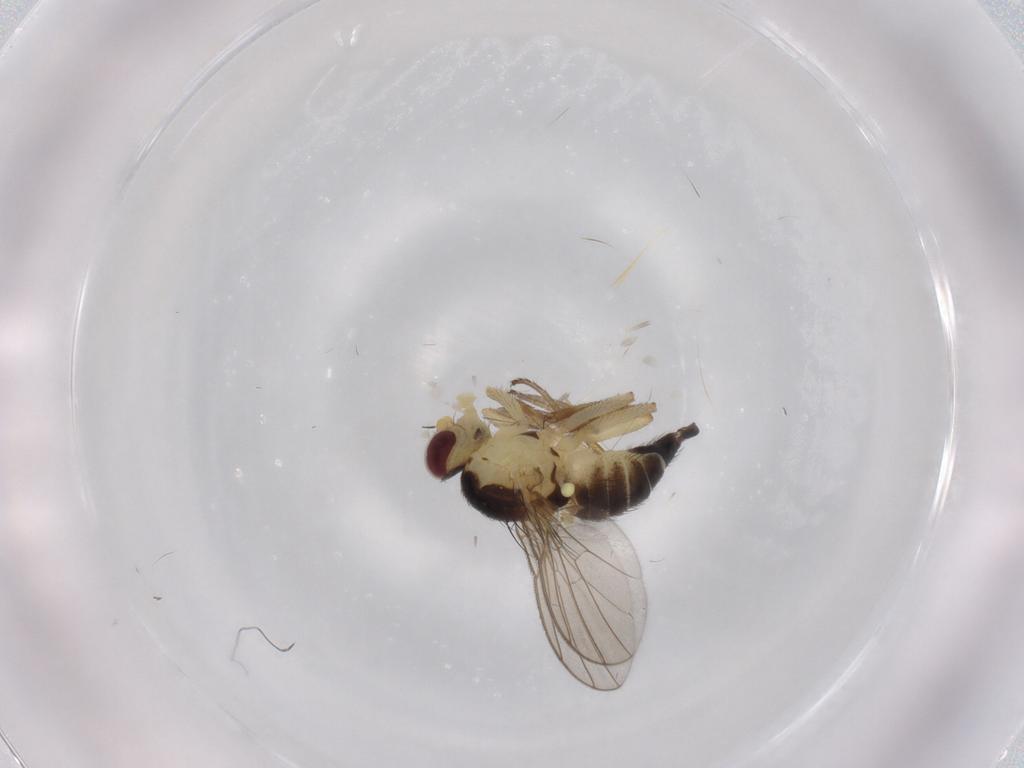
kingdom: Animalia
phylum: Arthropoda
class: Insecta
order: Diptera
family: Agromyzidae
